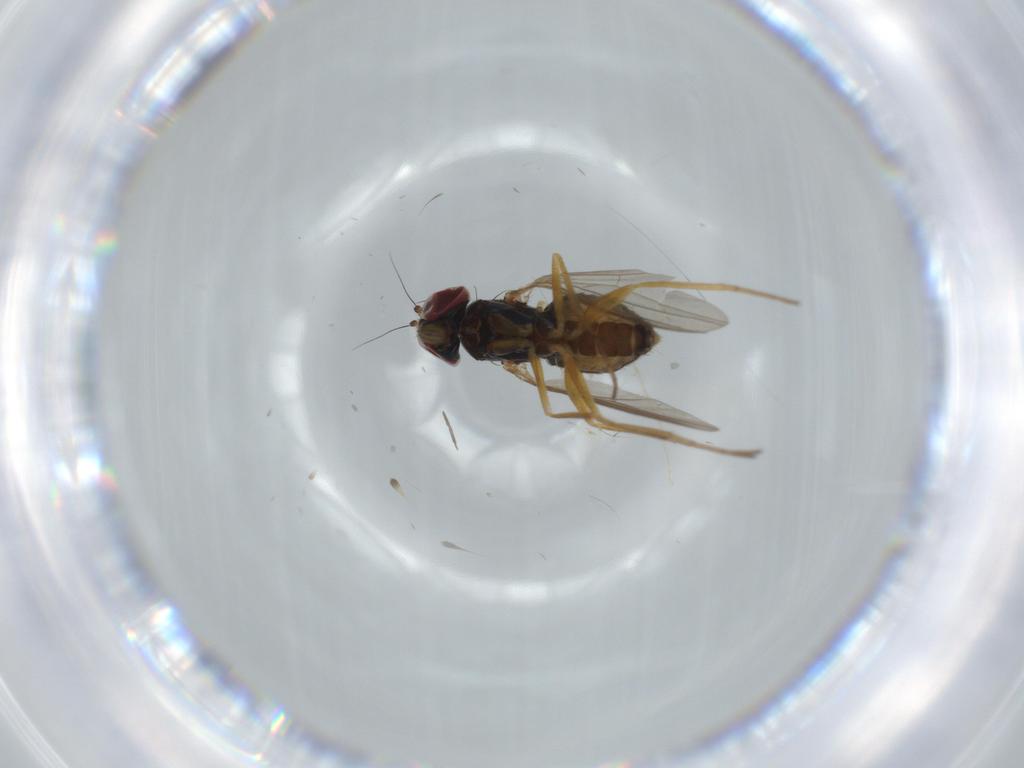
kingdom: Animalia
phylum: Arthropoda
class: Insecta
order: Diptera
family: Dolichopodidae
